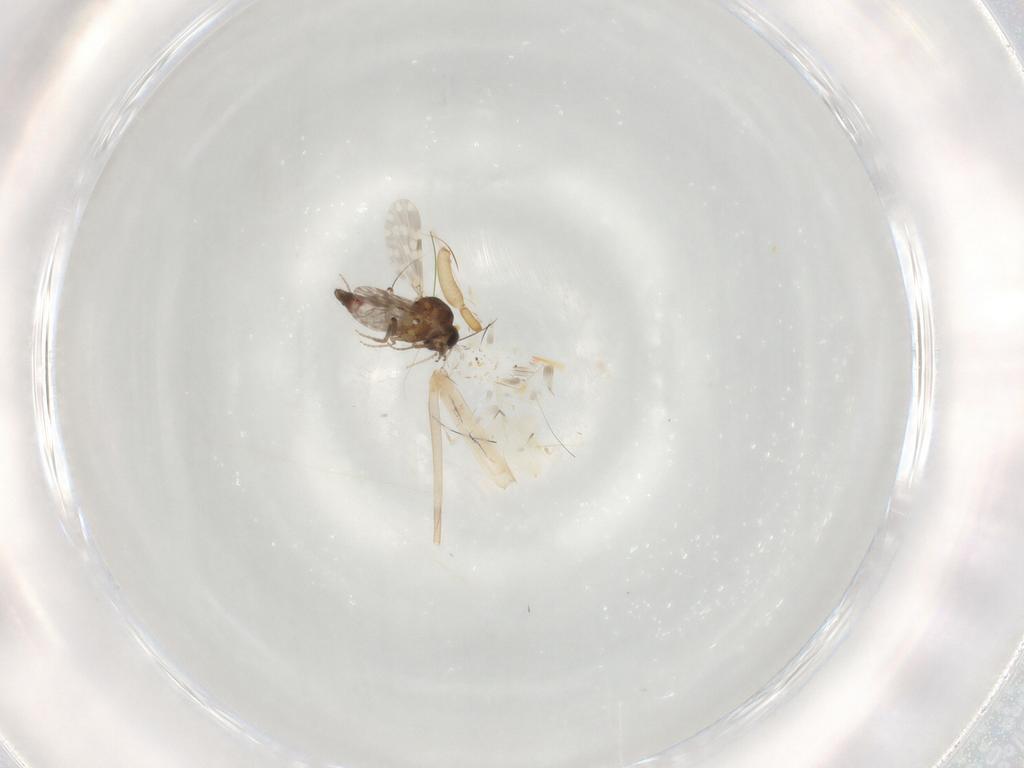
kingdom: Animalia
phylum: Arthropoda
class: Insecta
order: Diptera
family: Ceratopogonidae
